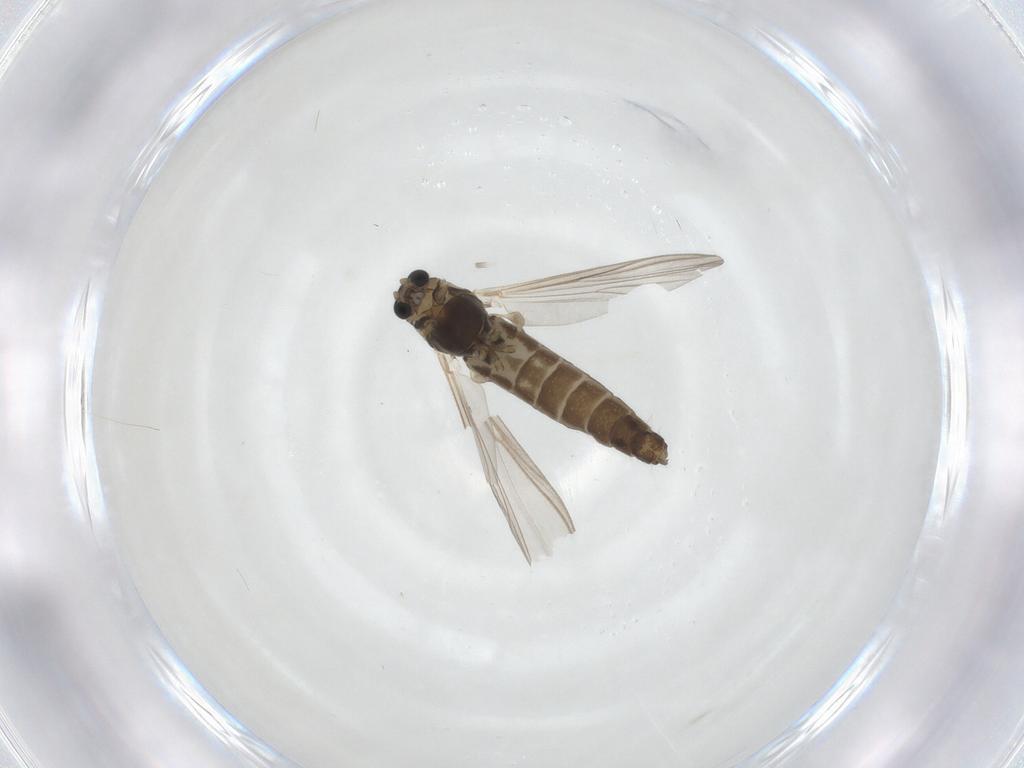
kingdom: Animalia
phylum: Arthropoda
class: Insecta
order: Diptera
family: Chironomidae
